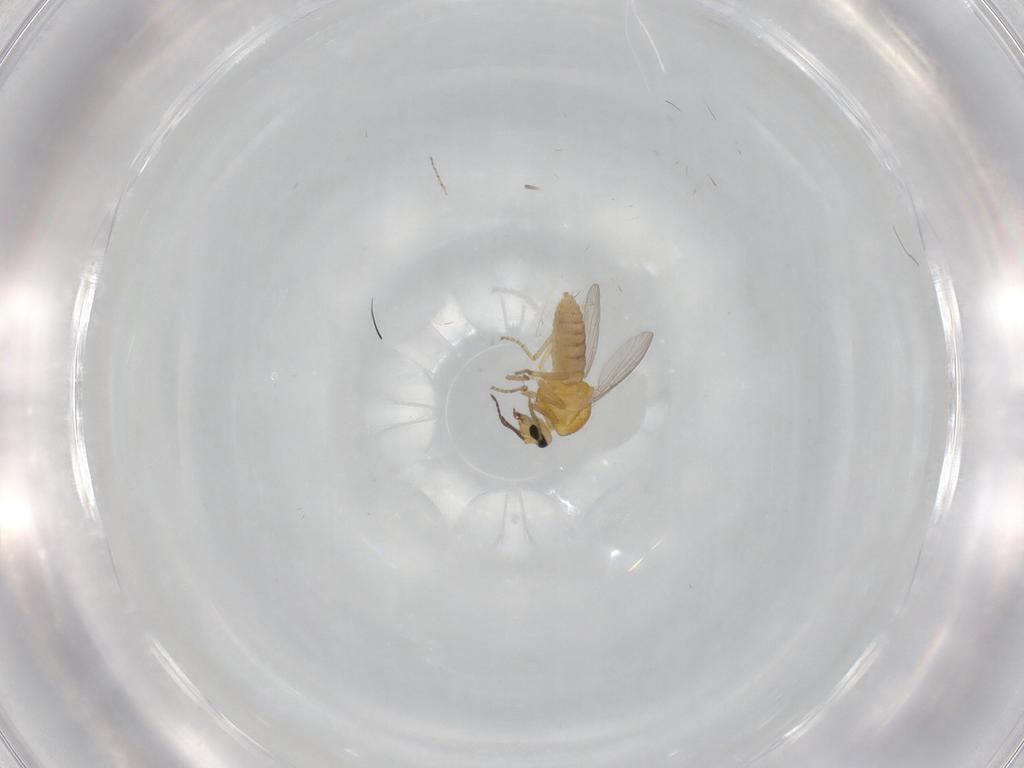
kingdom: Animalia
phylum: Arthropoda
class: Insecta
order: Diptera
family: Ceratopogonidae
